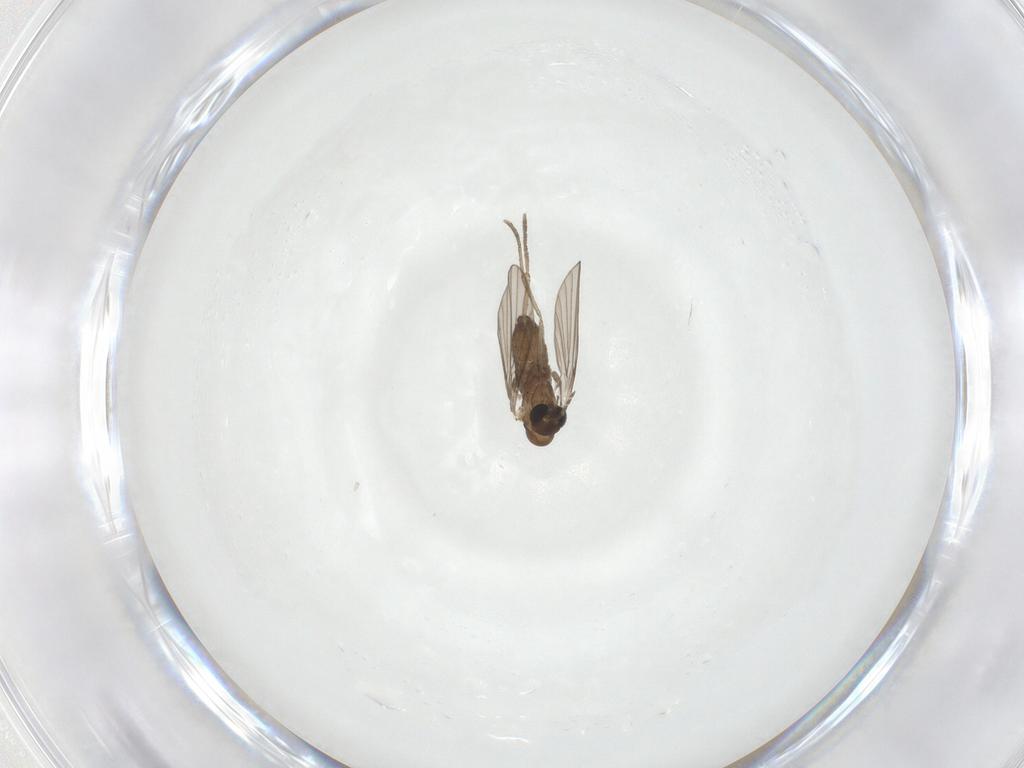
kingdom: Animalia
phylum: Arthropoda
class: Insecta
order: Diptera
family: Psychodidae
